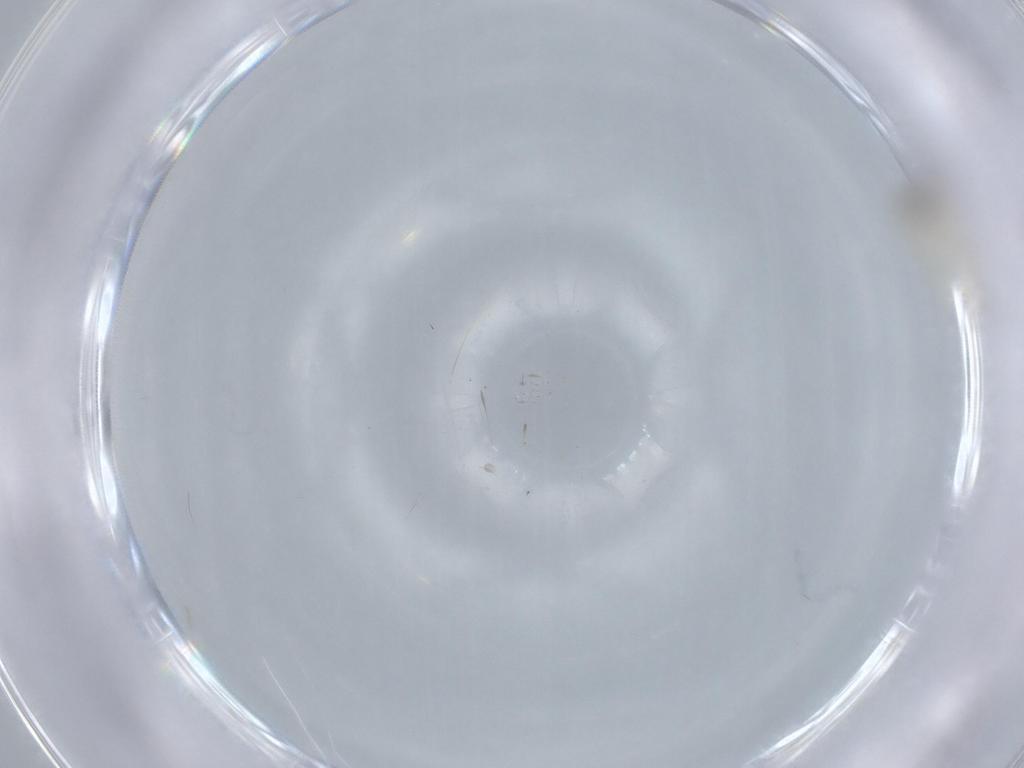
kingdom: Animalia
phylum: Arthropoda
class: Insecta
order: Diptera
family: Cecidomyiidae
